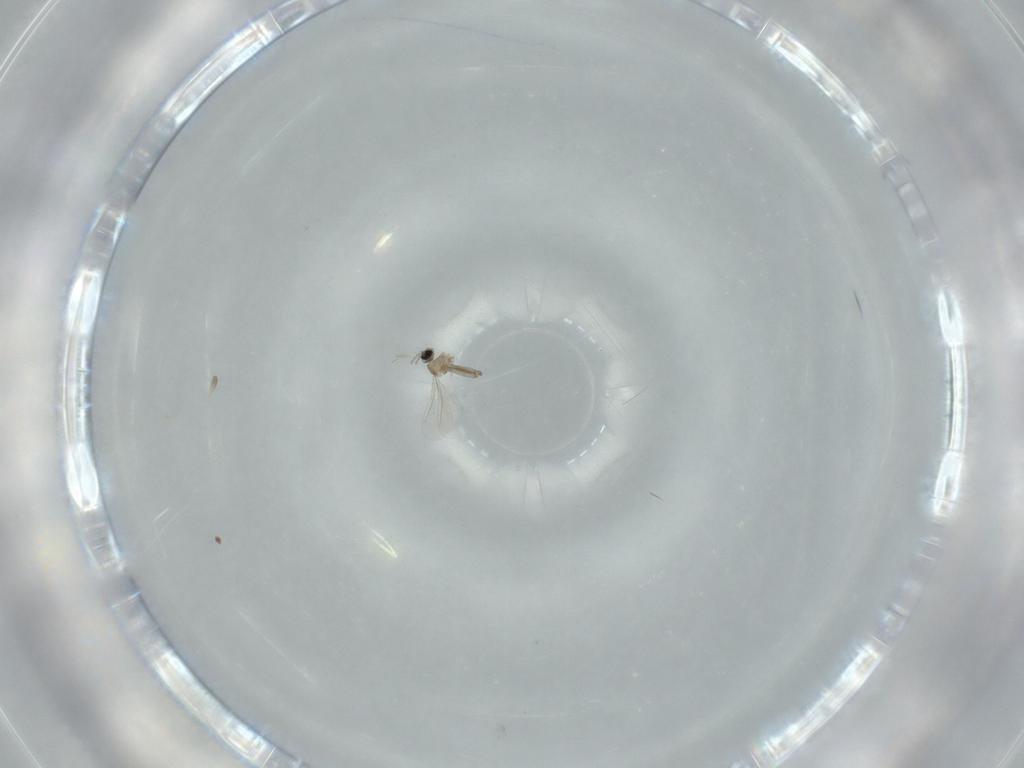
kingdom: Animalia
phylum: Arthropoda
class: Insecta
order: Diptera
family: Cecidomyiidae
